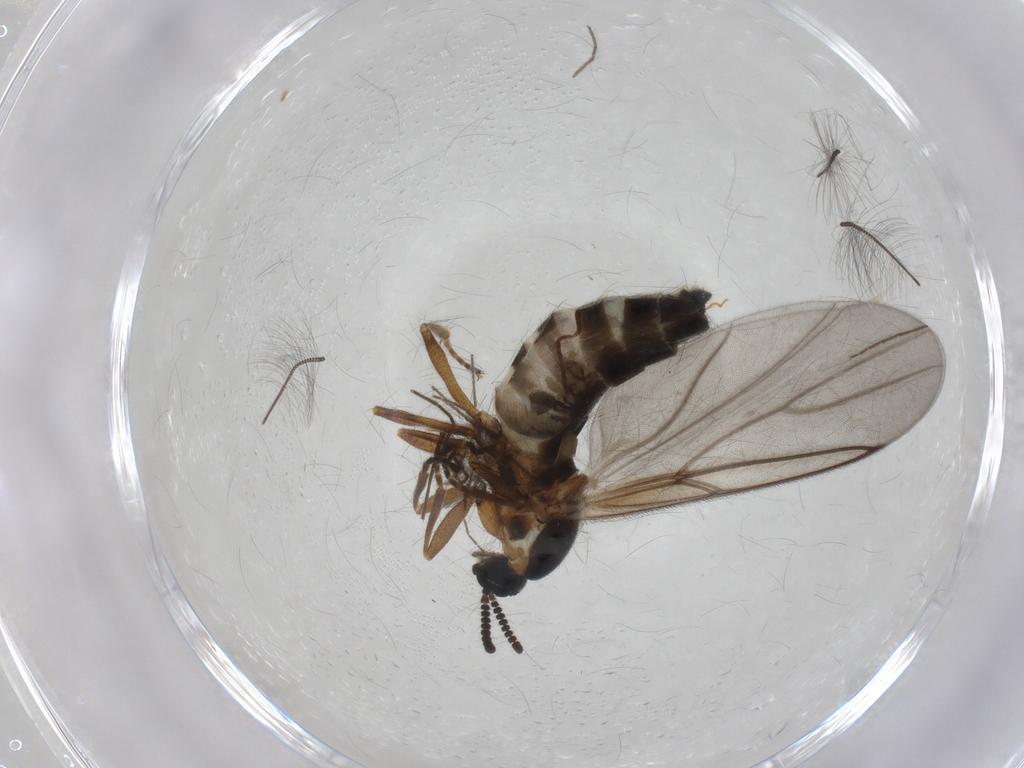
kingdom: Animalia
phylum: Arthropoda
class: Insecta
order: Diptera
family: Scatopsidae
